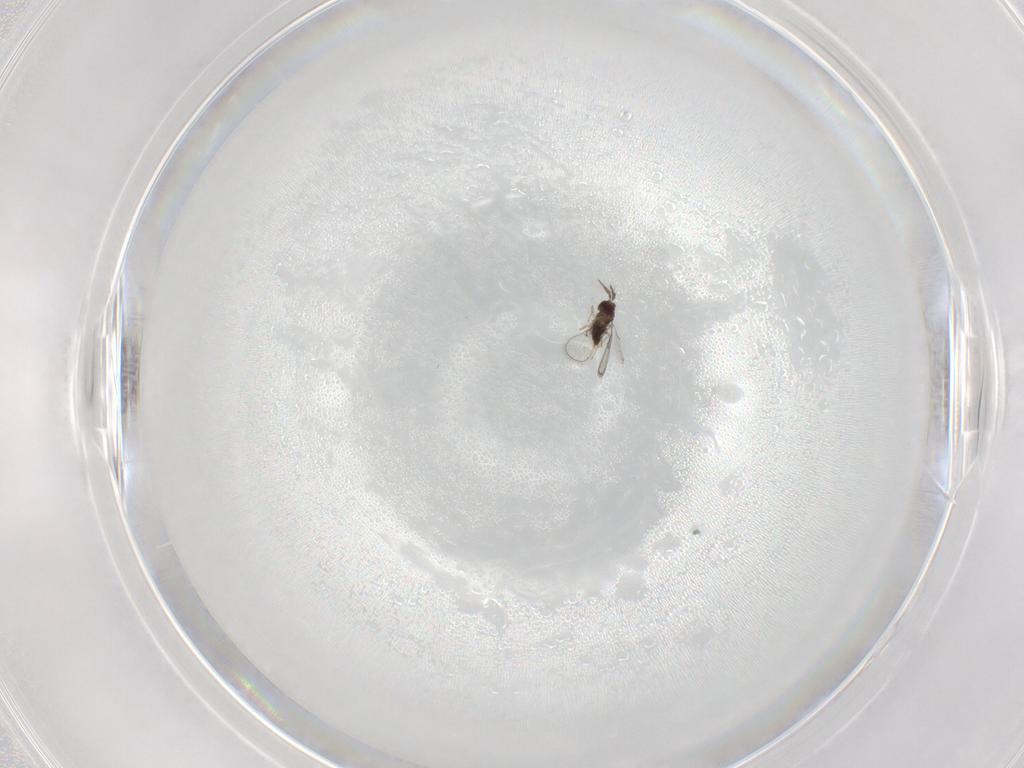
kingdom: Animalia
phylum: Arthropoda
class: Insecta
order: Hymenoptera
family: Trichogrammatidae
